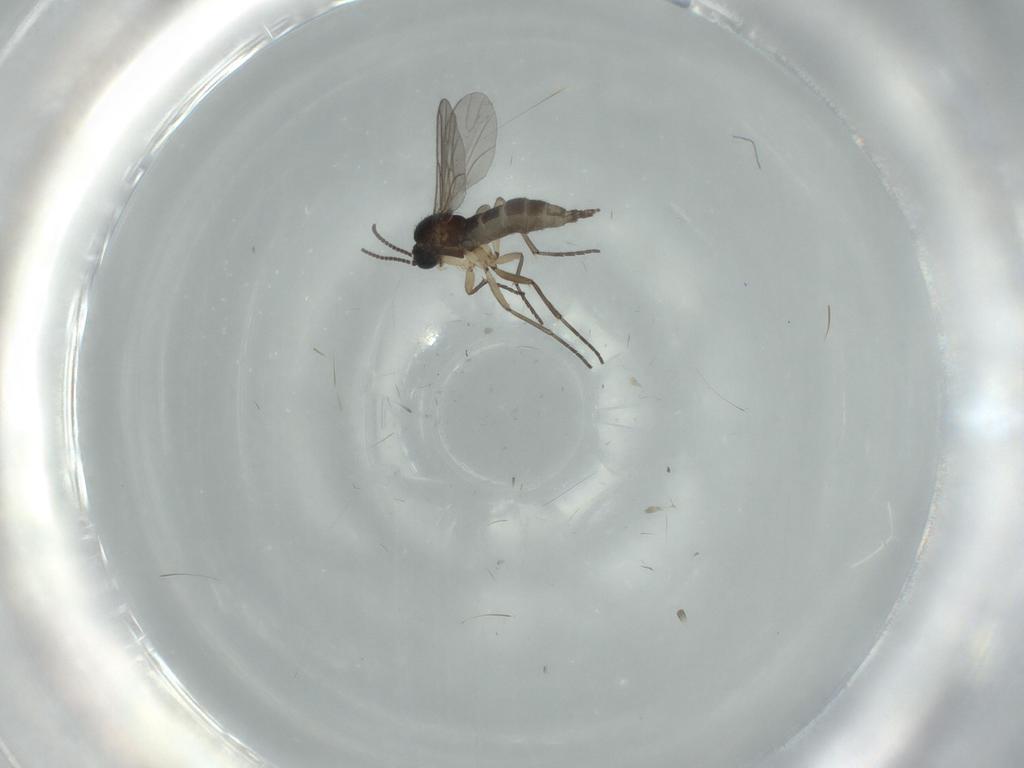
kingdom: Animalia
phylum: Arthropoda
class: Insecta
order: Diptera
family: Sciaridae
